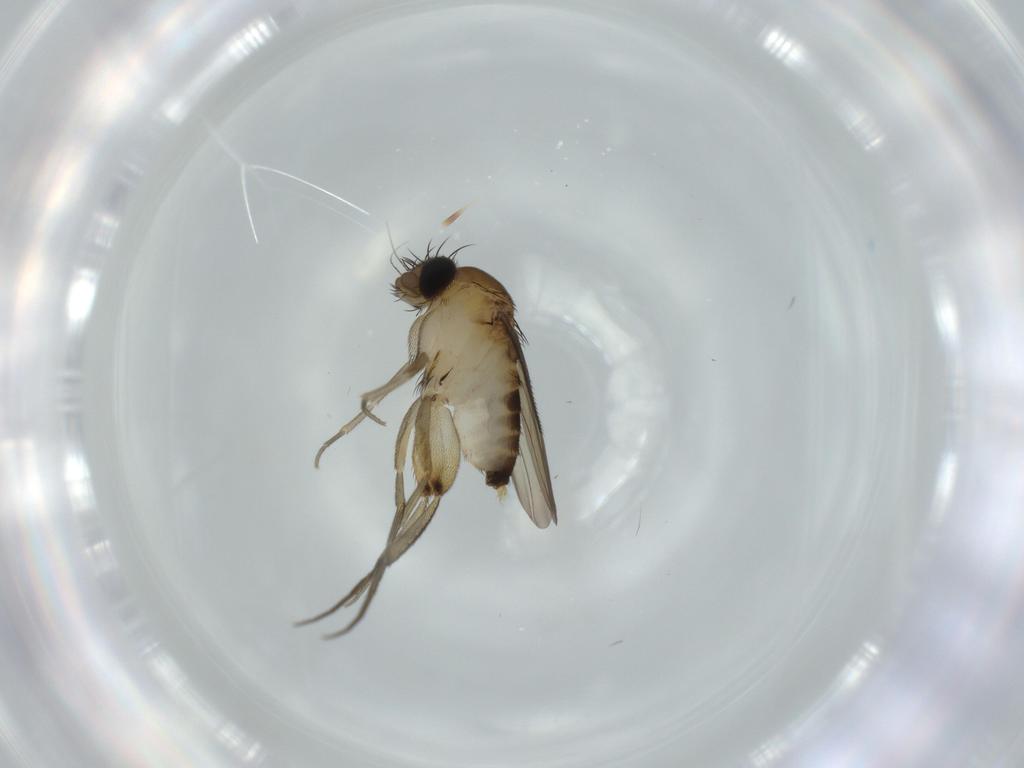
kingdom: Animalia
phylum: Arthropoda
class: Insecta
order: Diptera
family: Phoridae
